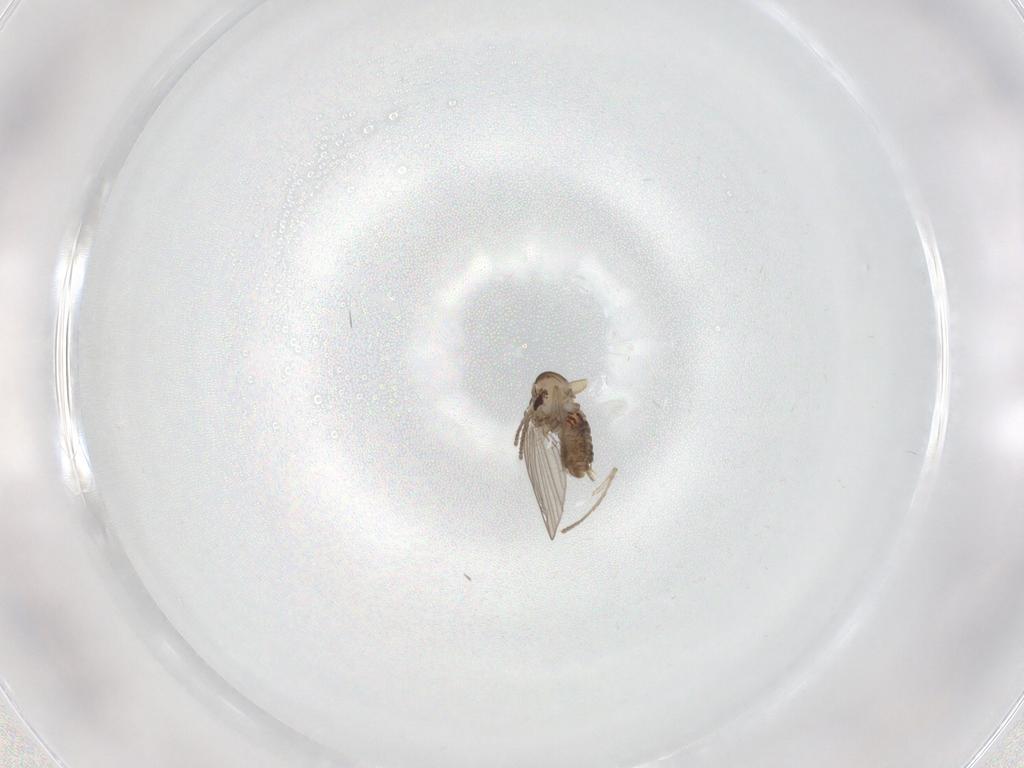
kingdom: Animalia
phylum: Arthropoda
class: Insecta
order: Diptera
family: Psychodidae
